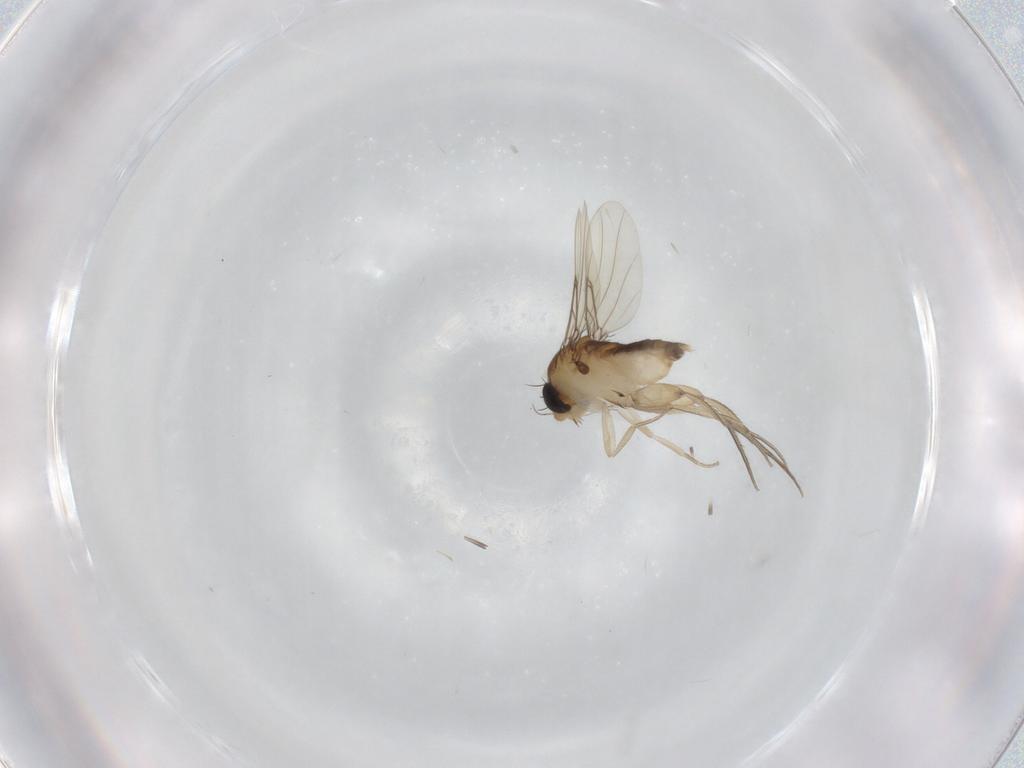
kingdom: Animalia
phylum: Arthropoda
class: Insecta
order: Diptera
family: Phoridae
